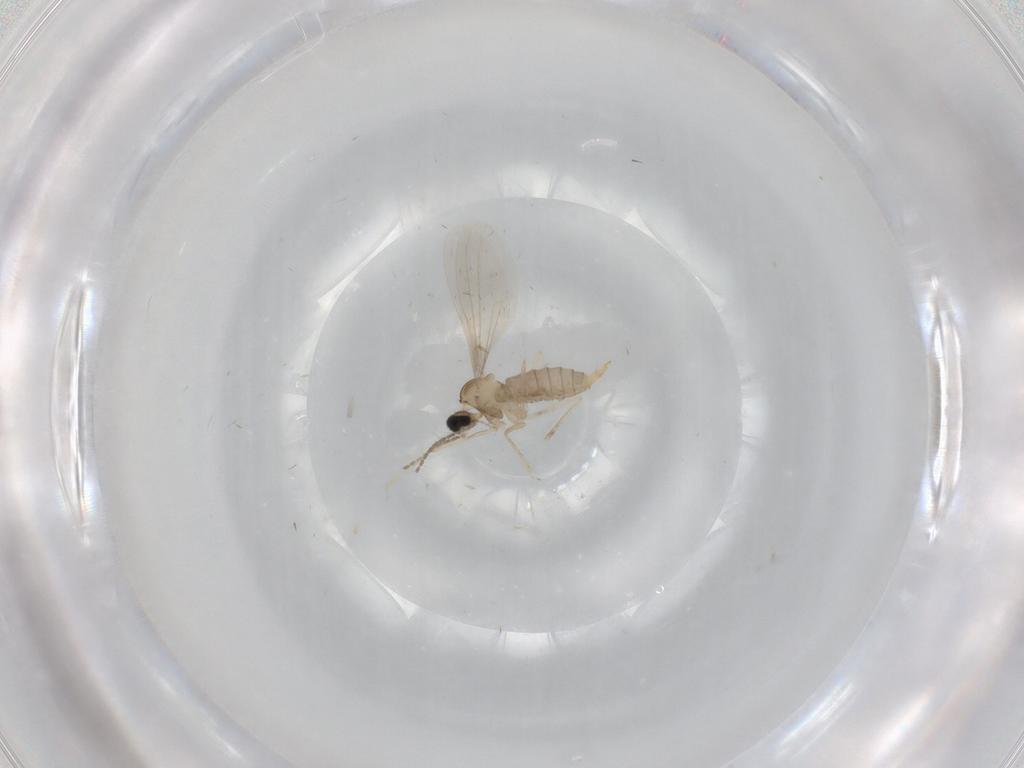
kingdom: Animalia
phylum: Arthropoda
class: Insecta
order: Diptera
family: Cecidomyiidae
